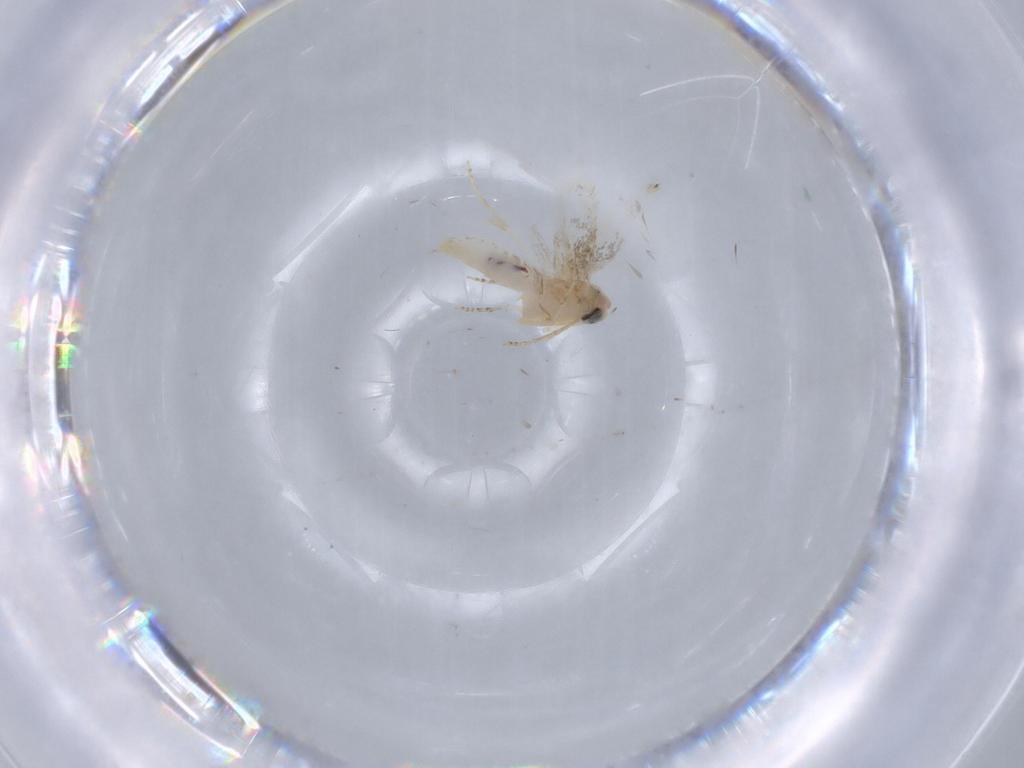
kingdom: Animalia
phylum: Arthropoda
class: Insecta
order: Lepidoptera
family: Bucculatricidae
